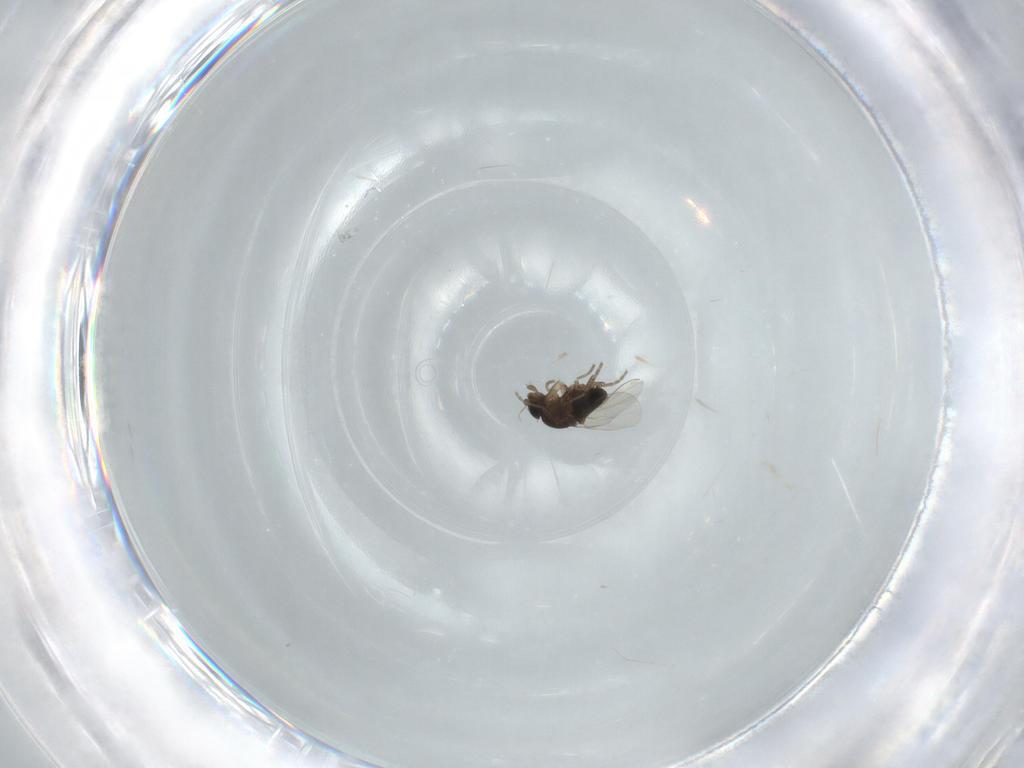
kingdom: Animalia
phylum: Arthropoda
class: Insecta
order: Diptera
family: Phoridae
